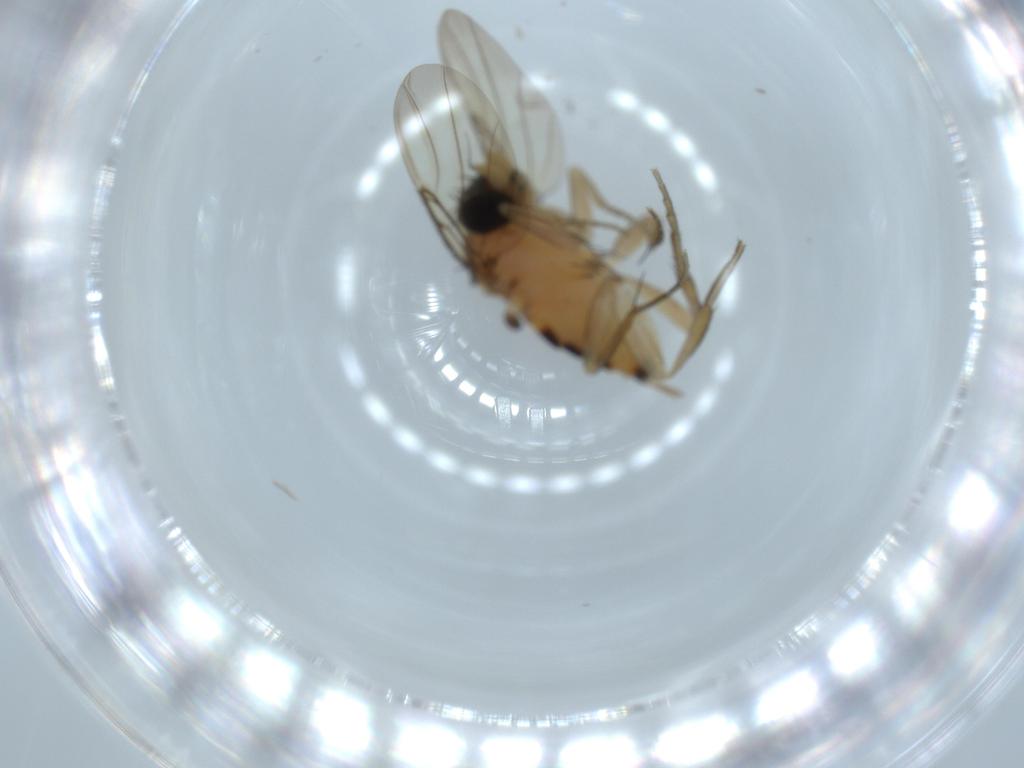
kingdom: Animalia
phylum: Arthropoda
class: Insecta
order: Diptera
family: Phoridae
